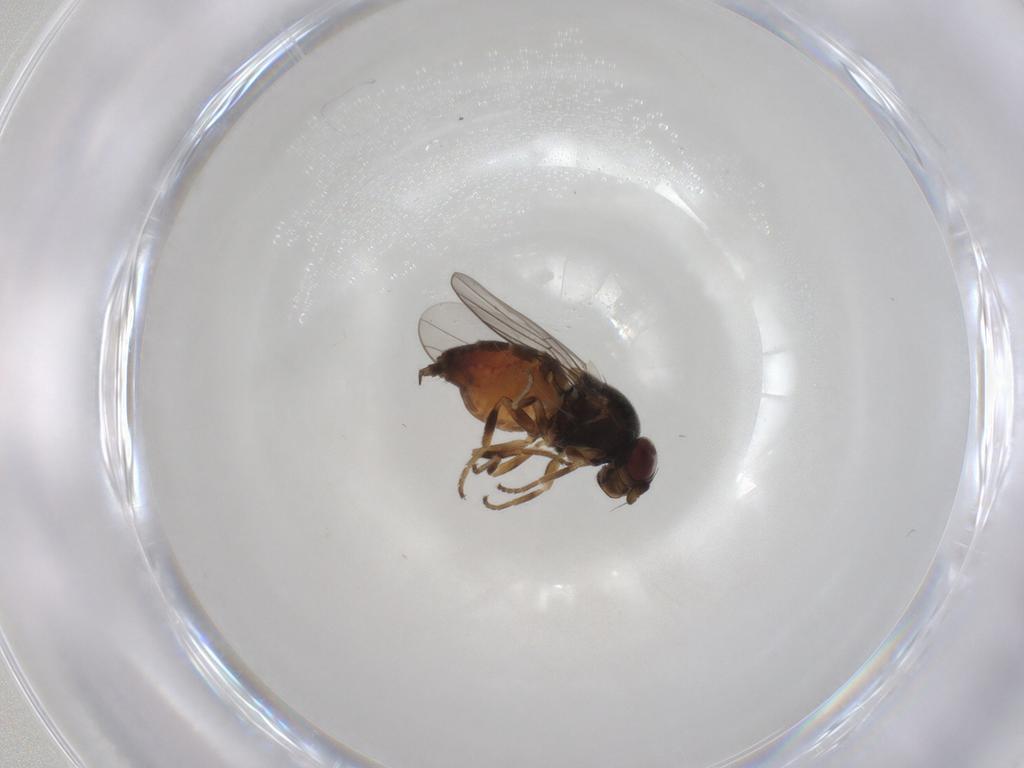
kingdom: Animalia
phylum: Arthropoda
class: Insecta
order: Diptera
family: Chloropidae
